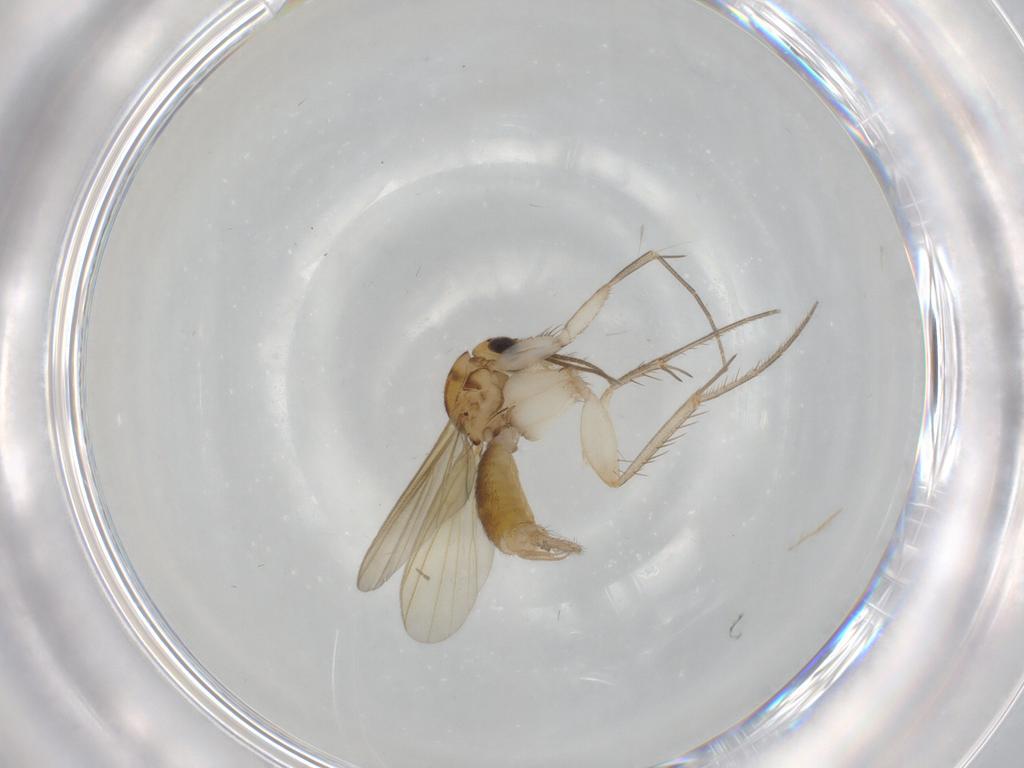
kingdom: Animalia
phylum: Arthropoda
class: Insecta
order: Diptera
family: Mycetophilidae
